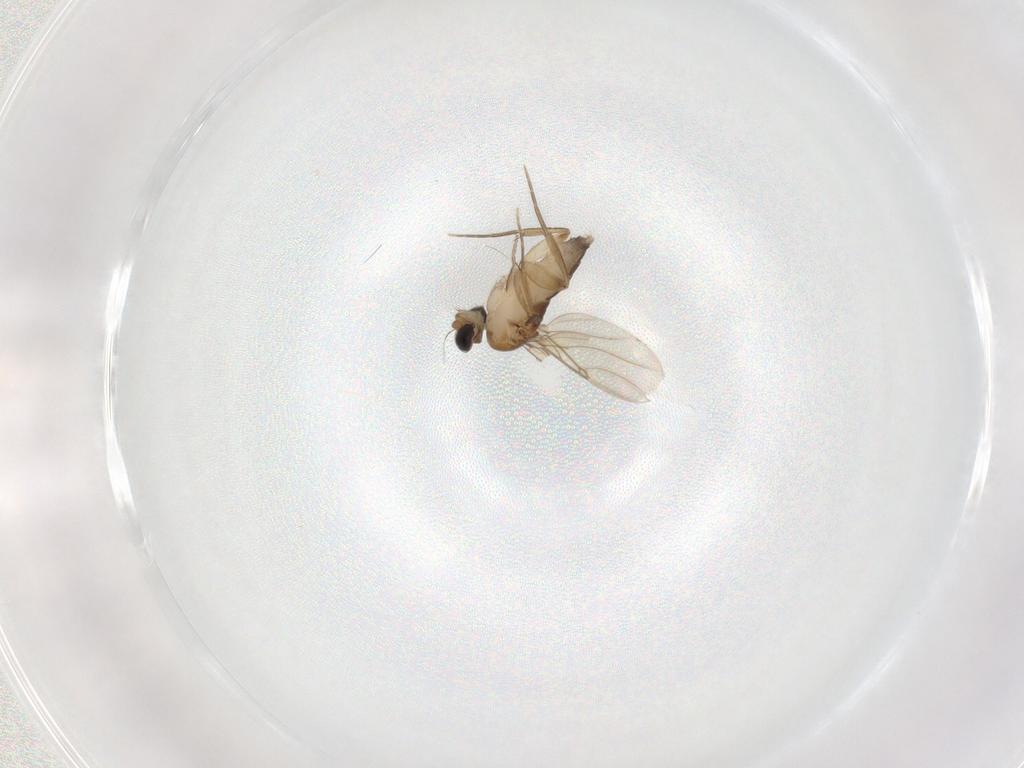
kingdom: Animalia
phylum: Arthropoda
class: Insecta
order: Diptera
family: Phoridae
